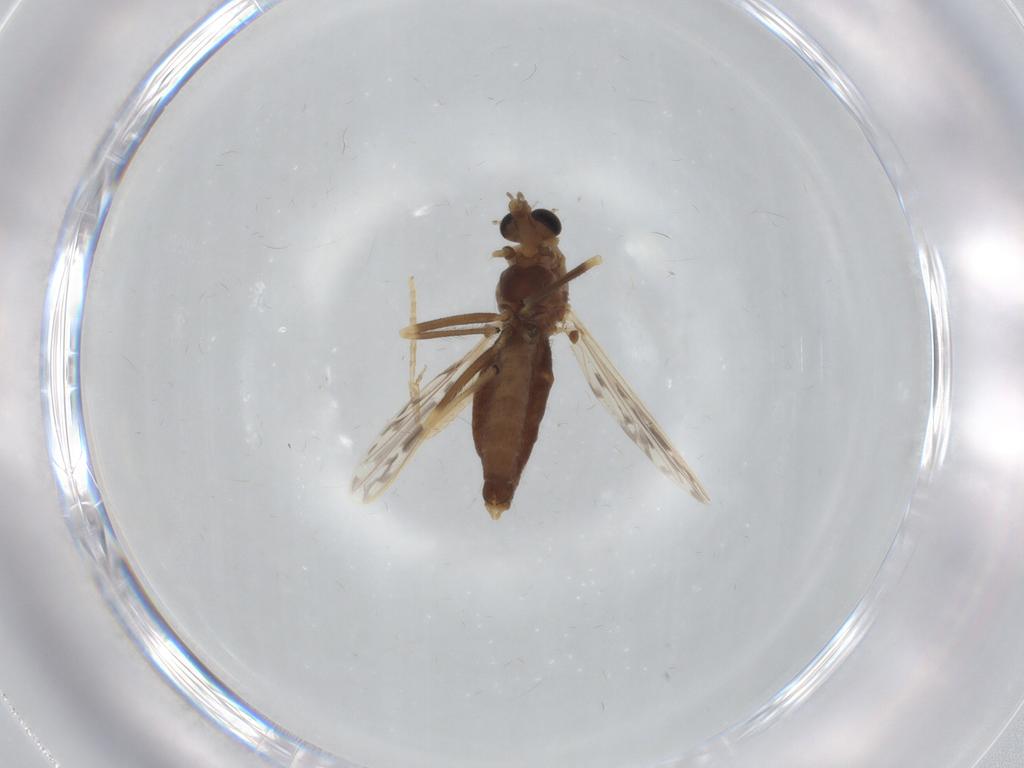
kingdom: Animalia
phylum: Arthropoda
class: Insecta
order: Diptera
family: Chironomidae
